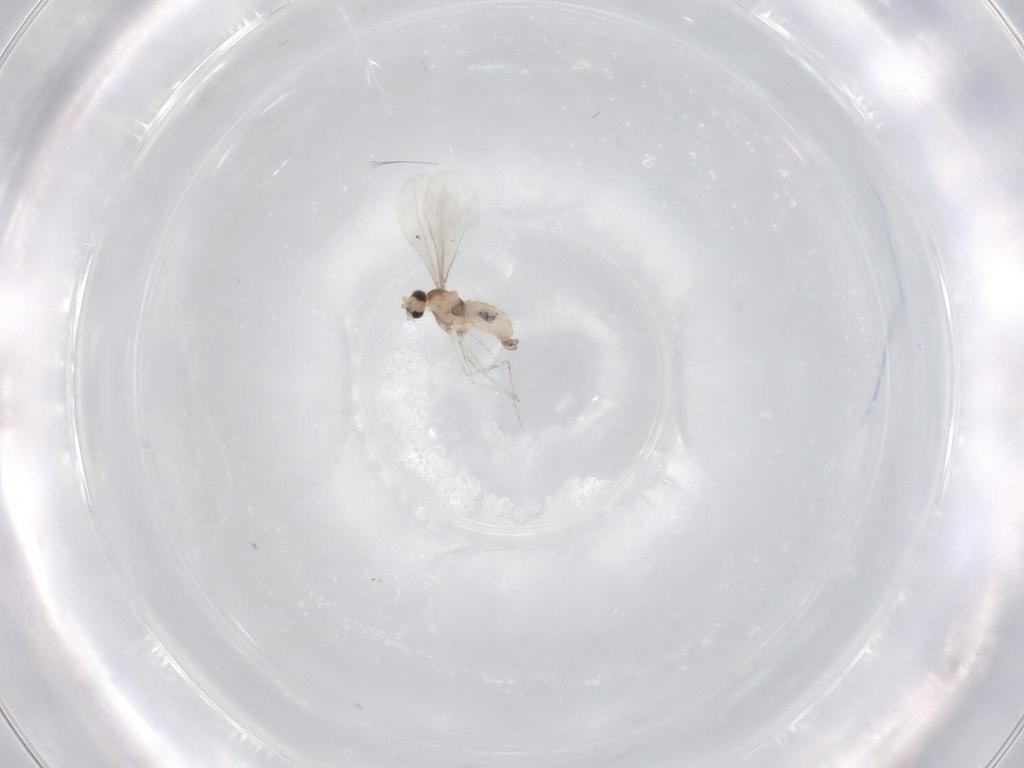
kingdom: Animalia
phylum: Arthropoda
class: Insecta
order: Diptera
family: Cecidomyiidae
